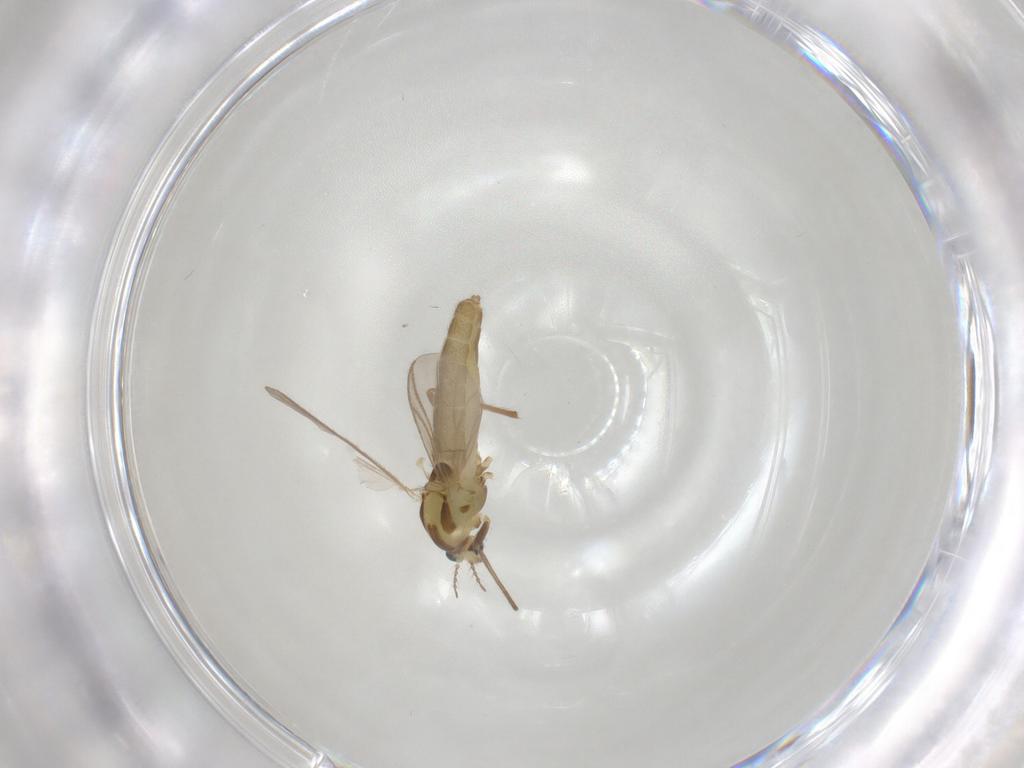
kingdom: Animalia
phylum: Arthropoda
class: Insecta
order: Diptera
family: Chironomidae
